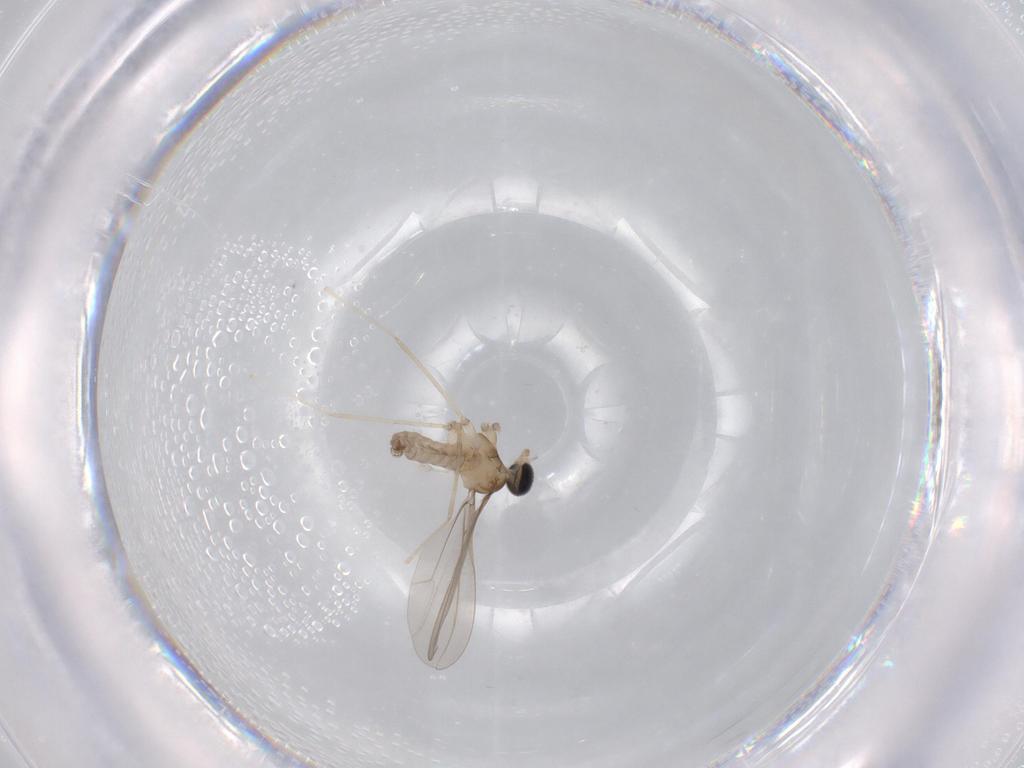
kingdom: Animalia
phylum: Arthropoda
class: Insecta
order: Diptera
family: Cecidomyiidae
